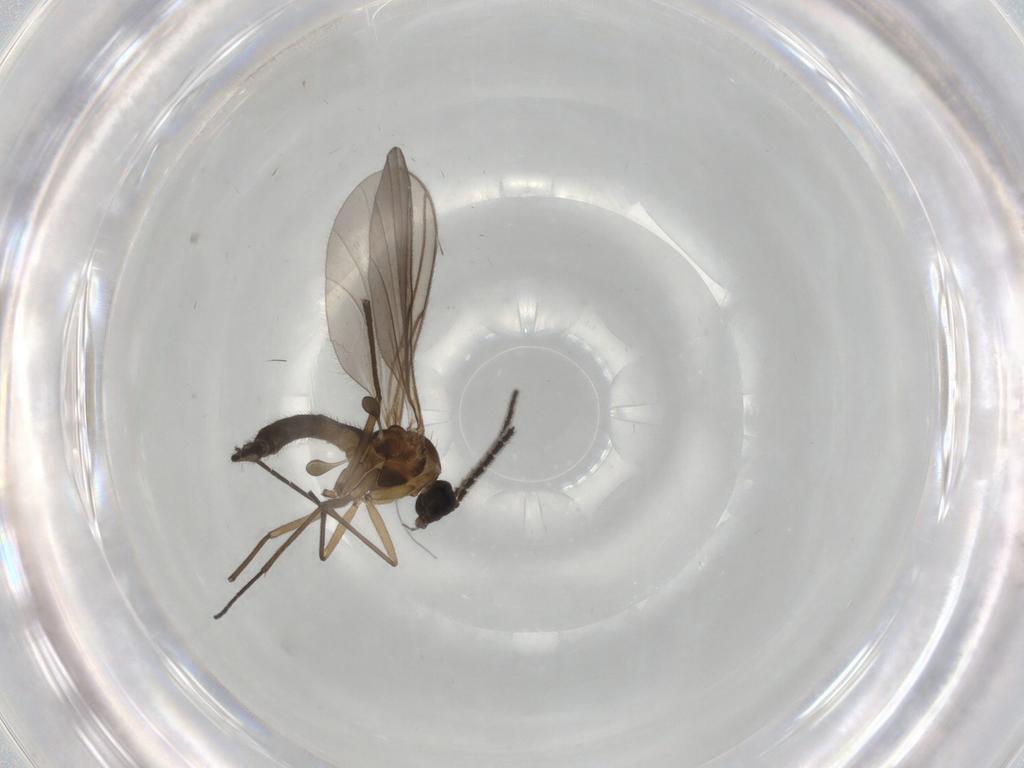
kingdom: Animalia
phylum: Arthropoda
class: Insecta
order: Diptera
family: Sciaridae
